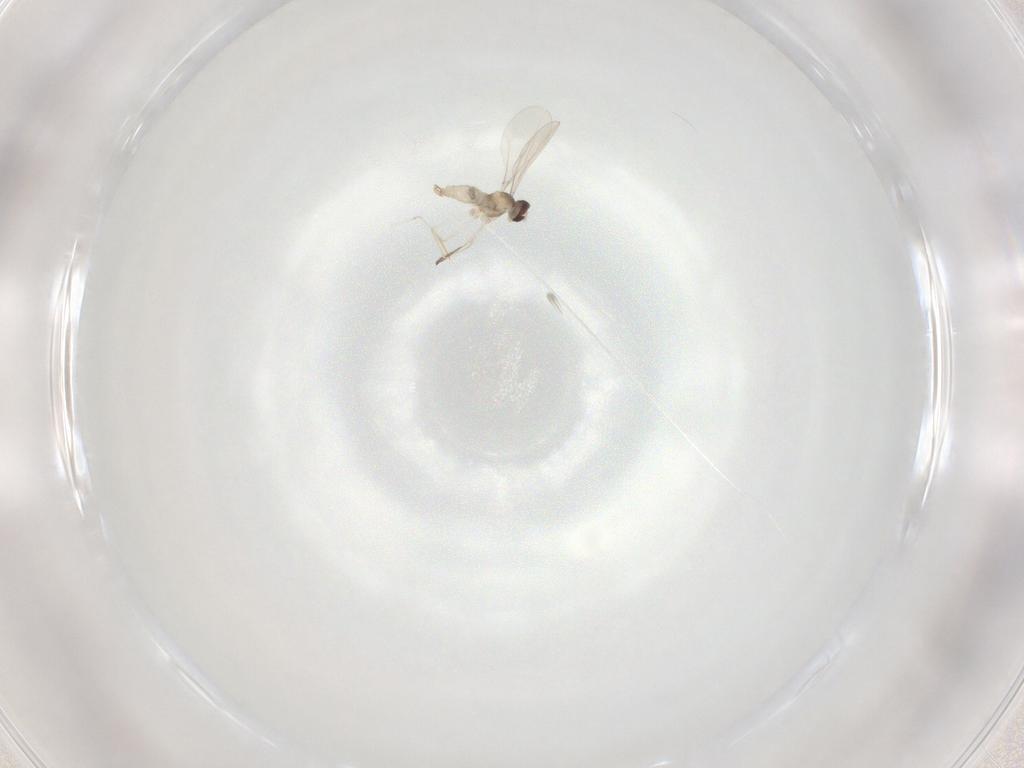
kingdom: Animalia
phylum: Arthropoda
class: Insecta
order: Diptera
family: Cecidomyiidae
